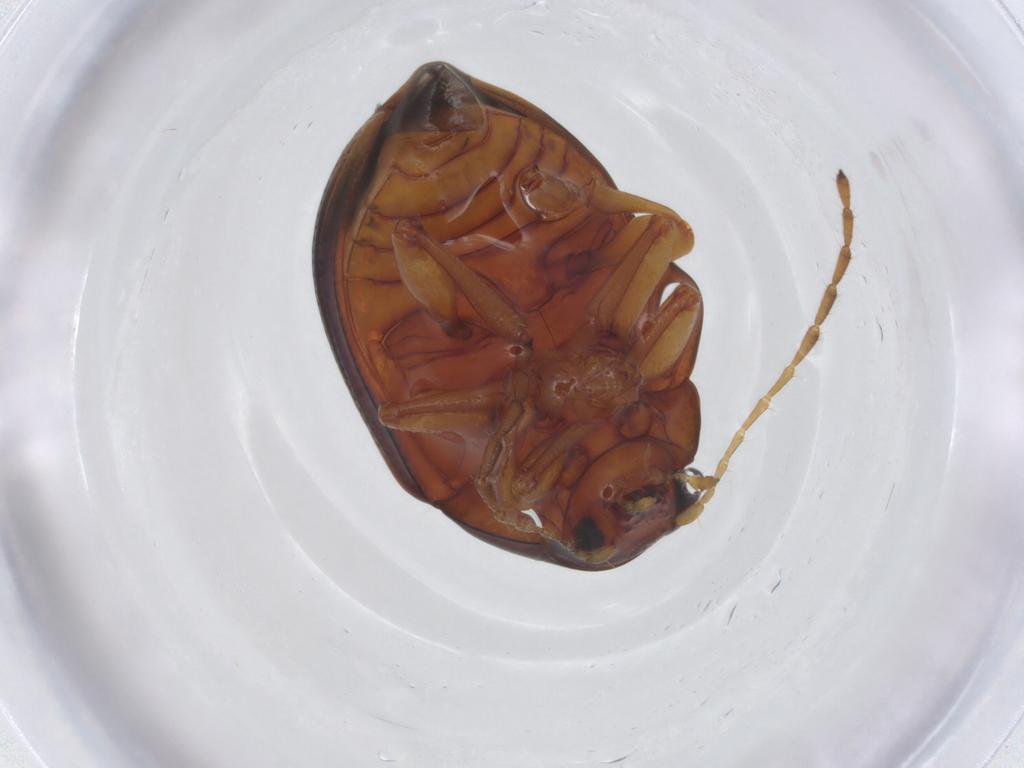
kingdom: Animalia
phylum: Arthropoda
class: Insecta
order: Coleoptera
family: Chrysomelidae
